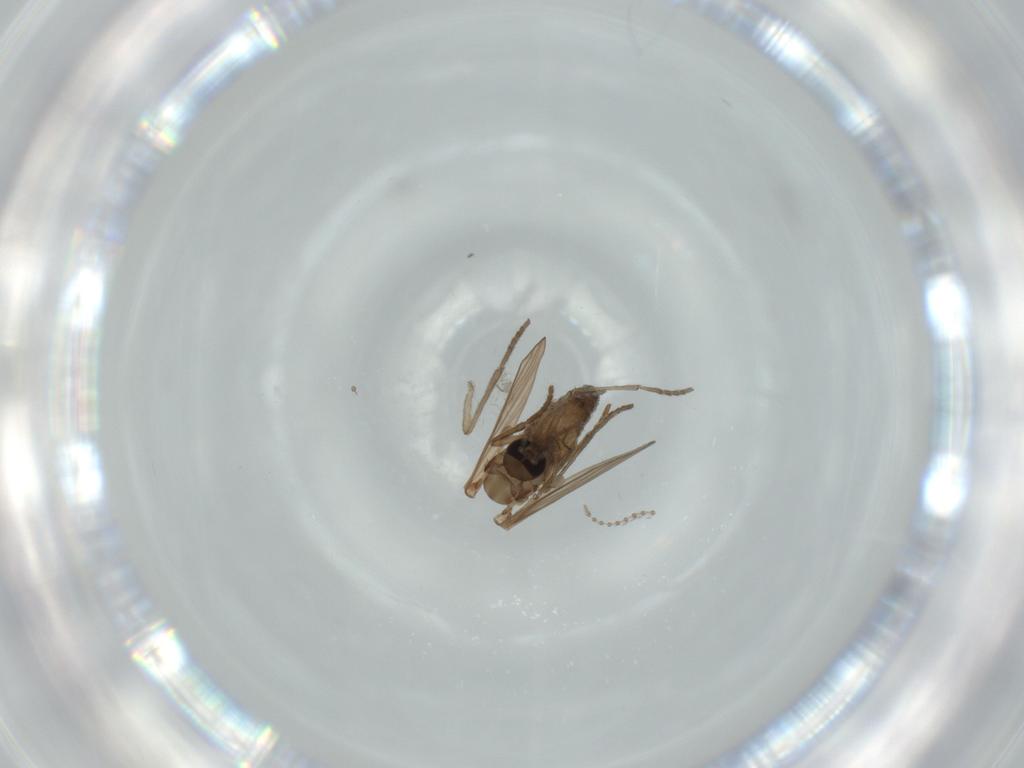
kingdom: Animalia
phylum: Arthropoda
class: Insecta
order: Diptera
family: Psychodidae
